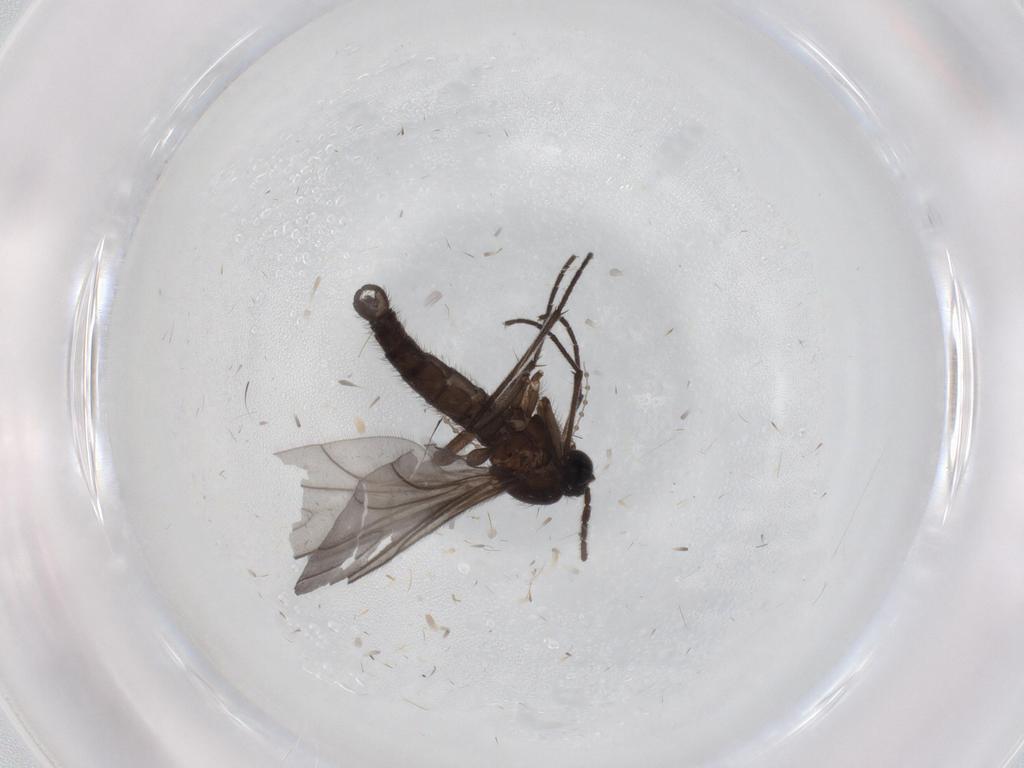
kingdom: Animalia
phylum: Arthropoda
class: Insecta
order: Diptera
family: Sciaridae
